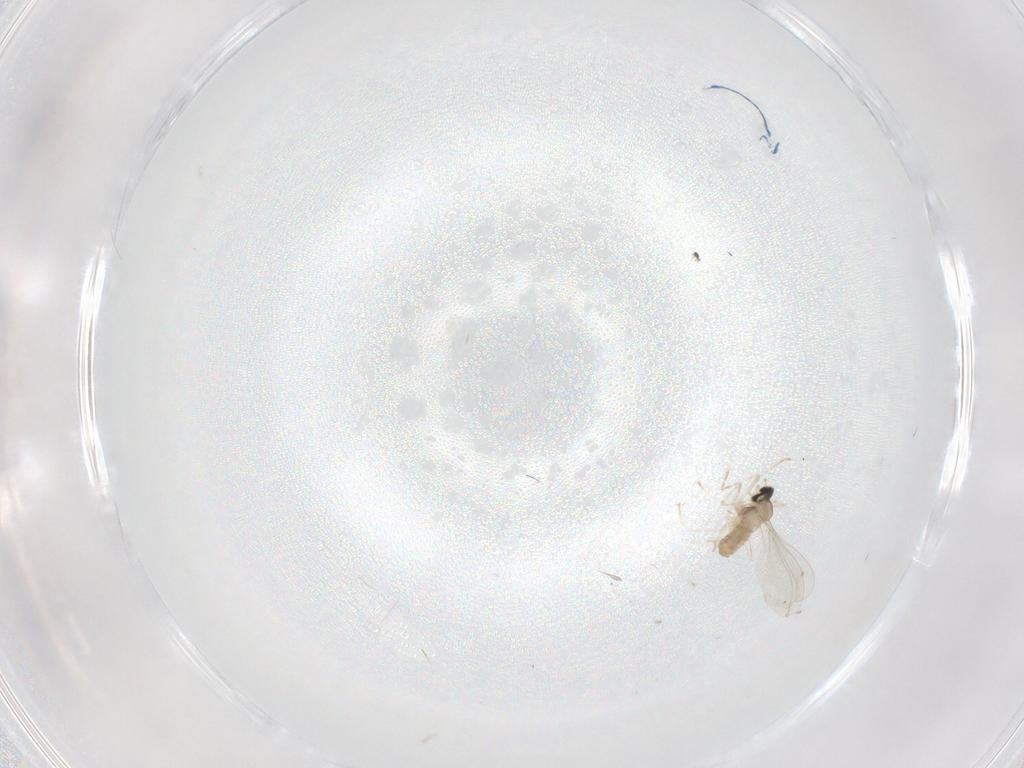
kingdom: Animalia
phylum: Arthropoda
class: Insecta
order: Diptera
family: Cecidomyiidae
